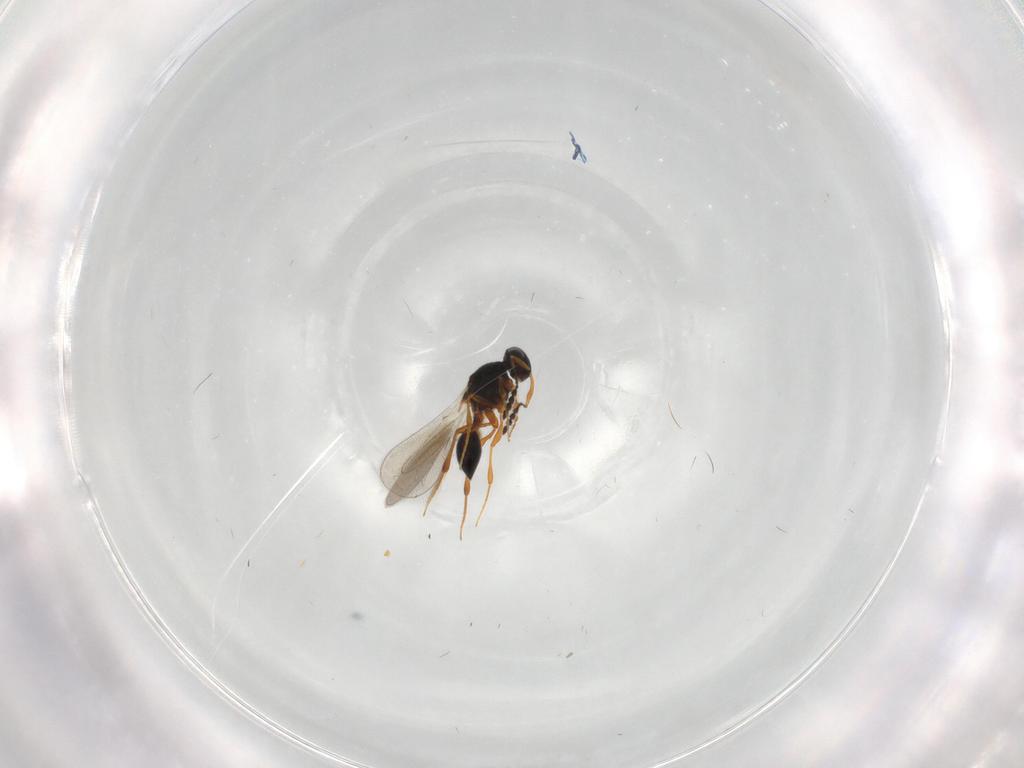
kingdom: Animalia
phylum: Arthropoda
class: Insecta
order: Hymenoptera
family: Platygastridae
